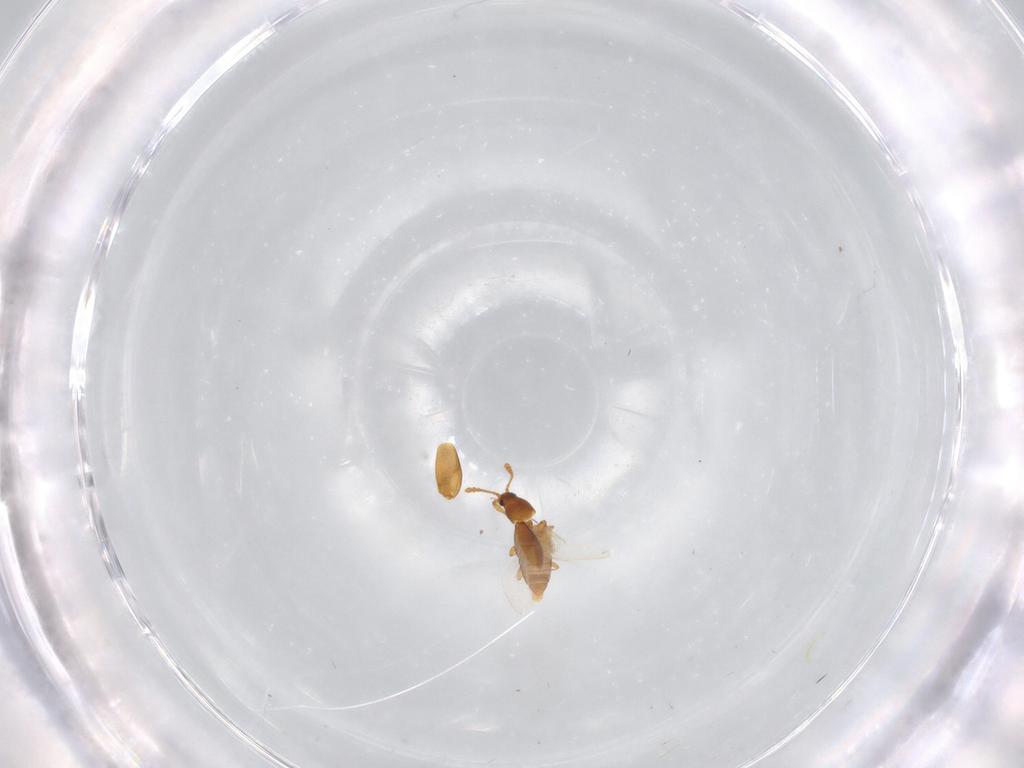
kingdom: Animalia
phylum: Arthropoda
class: Insecta
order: Coleoptera
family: Staphylinidae
